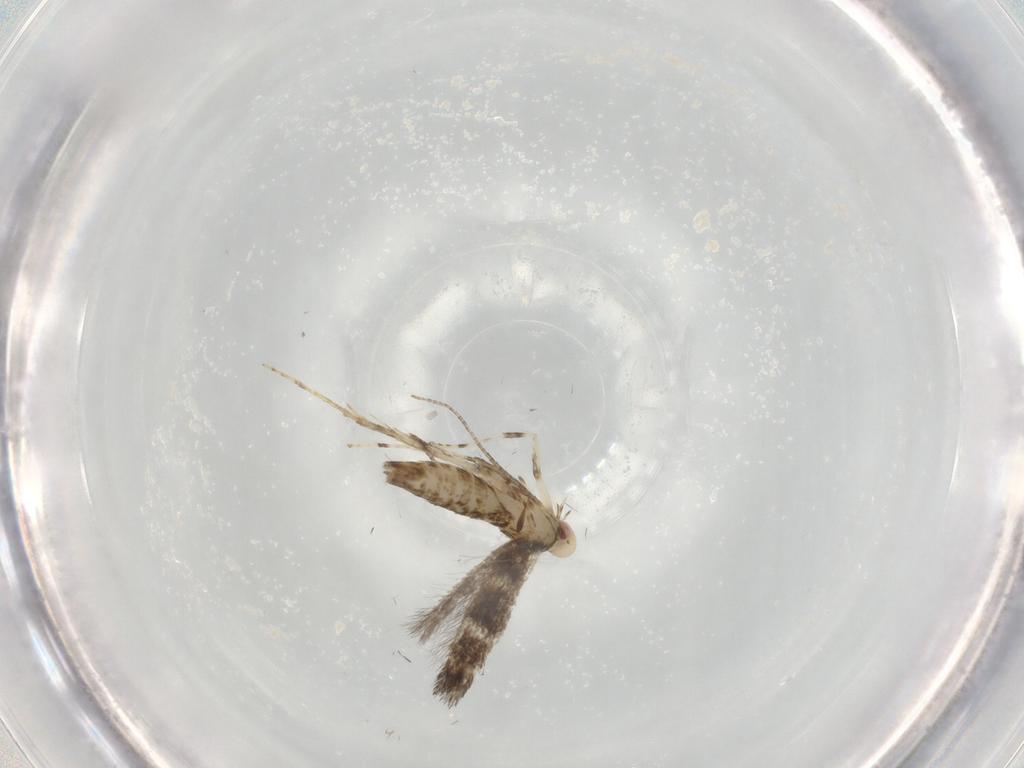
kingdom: Animalia
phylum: Arthropoda
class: Insecta
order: Lepidoptera
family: Gracillariidae
